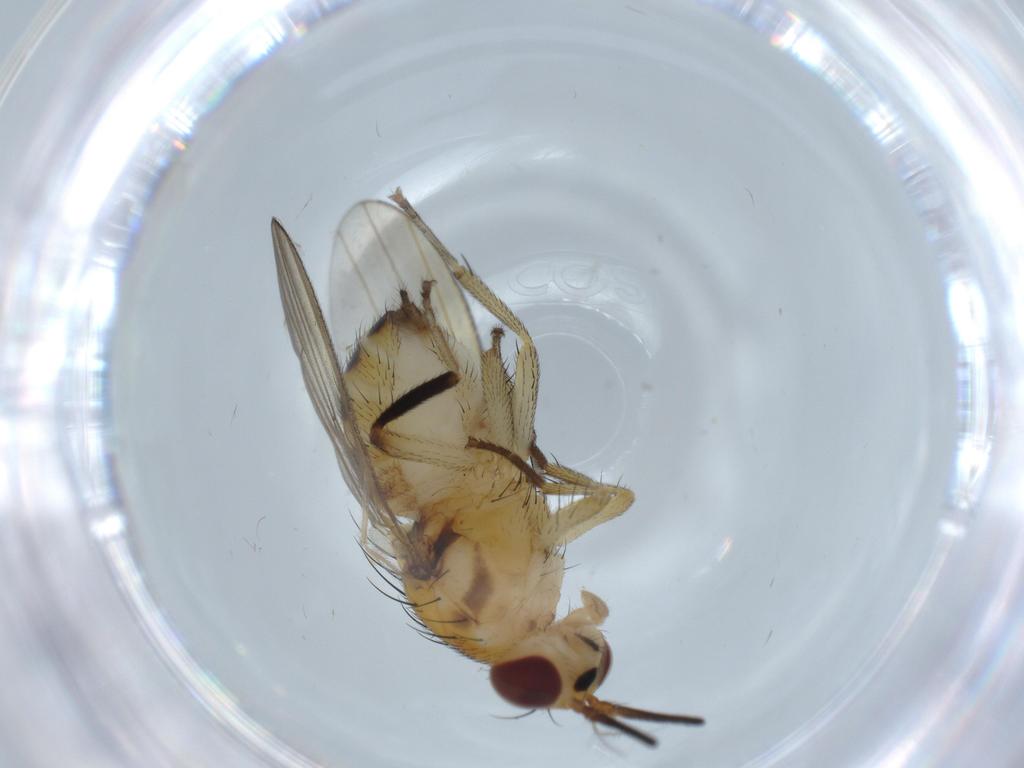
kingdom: Animalia
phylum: Arthropoda
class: Insecta
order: Diptera
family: Lauxaniidae
